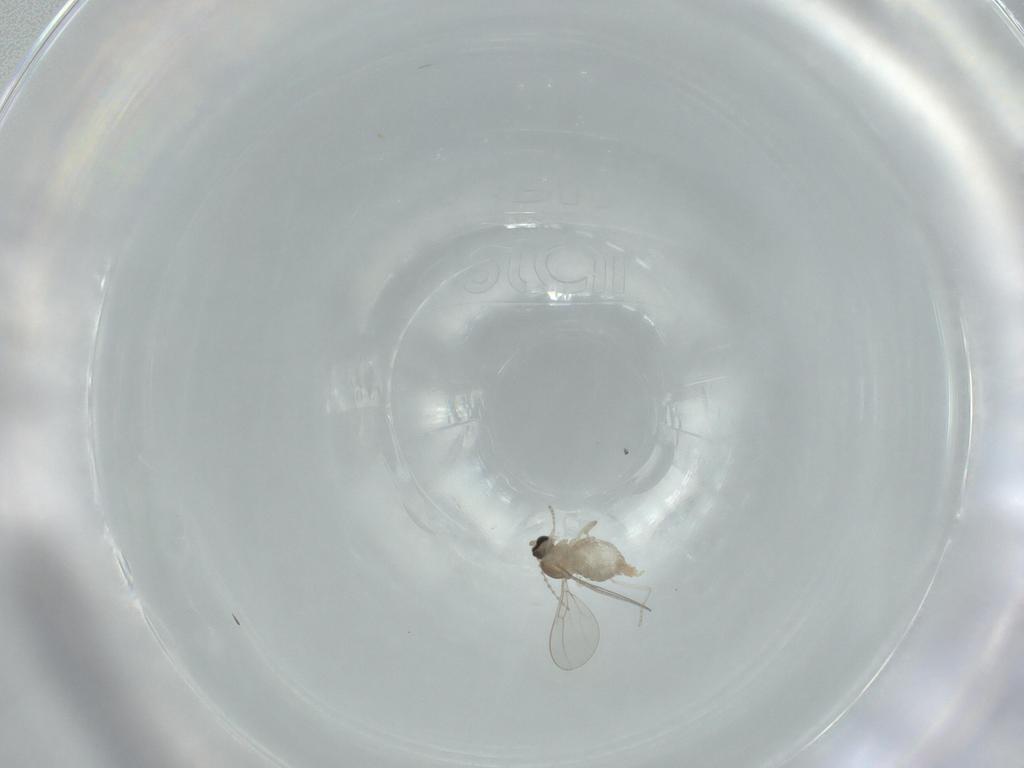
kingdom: Animalia
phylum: Arthropoda
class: Insecta
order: Diptera
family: Cecidomyiidae
